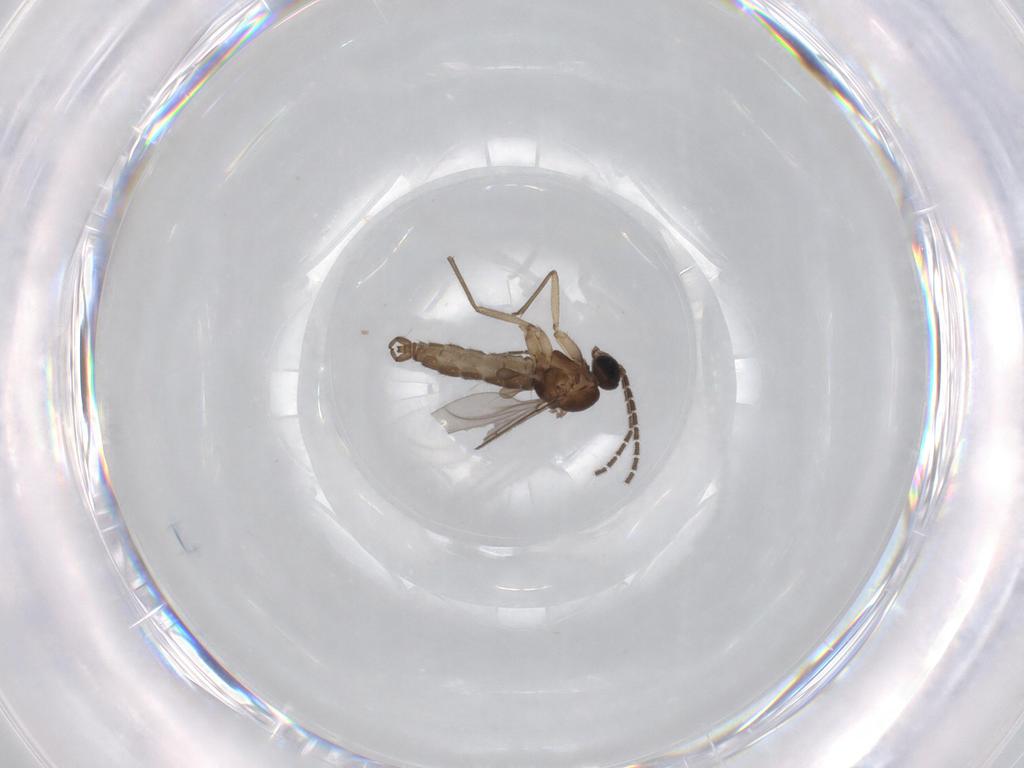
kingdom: Animalia
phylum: Arthropoda
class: Insecta
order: Diptera
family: Sciaridae
